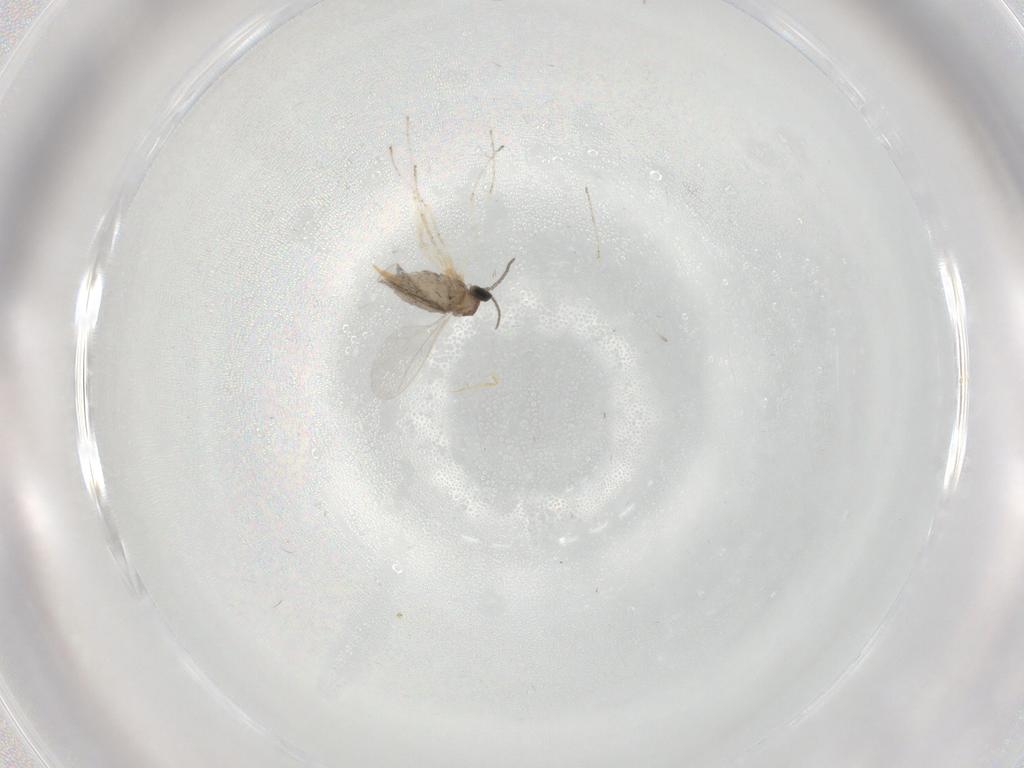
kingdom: Animalia
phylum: Arthropoda
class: Insecta
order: Diptera
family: Cecidomyiidae
